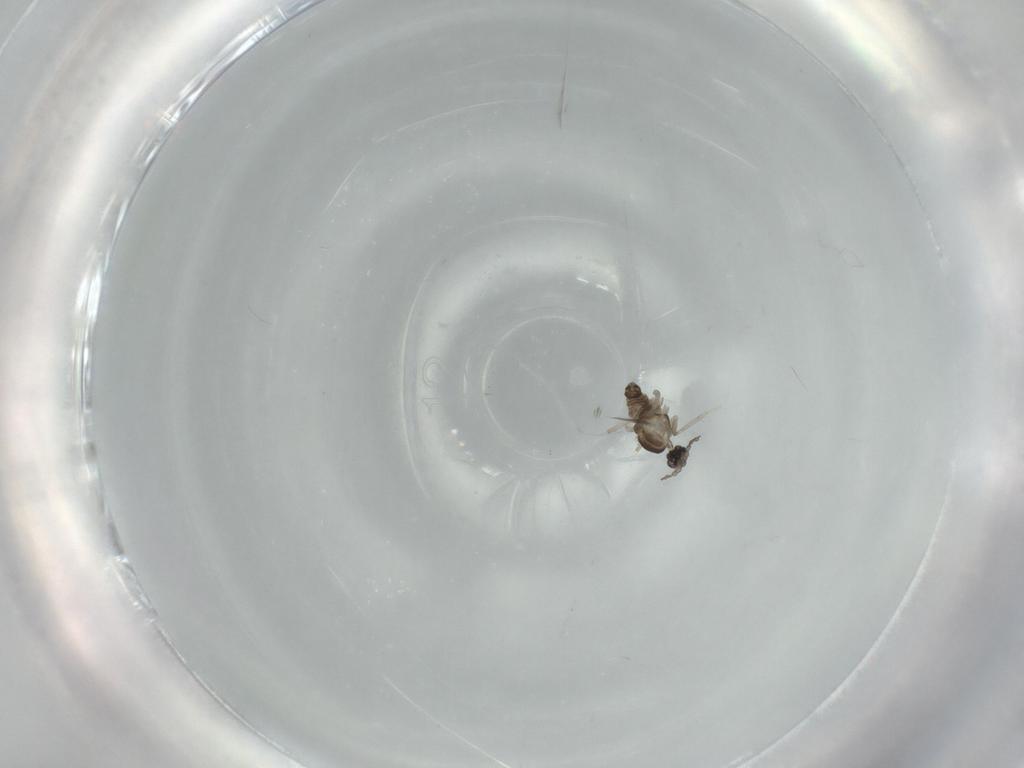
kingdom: Animalia
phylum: Arthropoda
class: Insecta
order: Diptera
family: Cecidomyiidae
